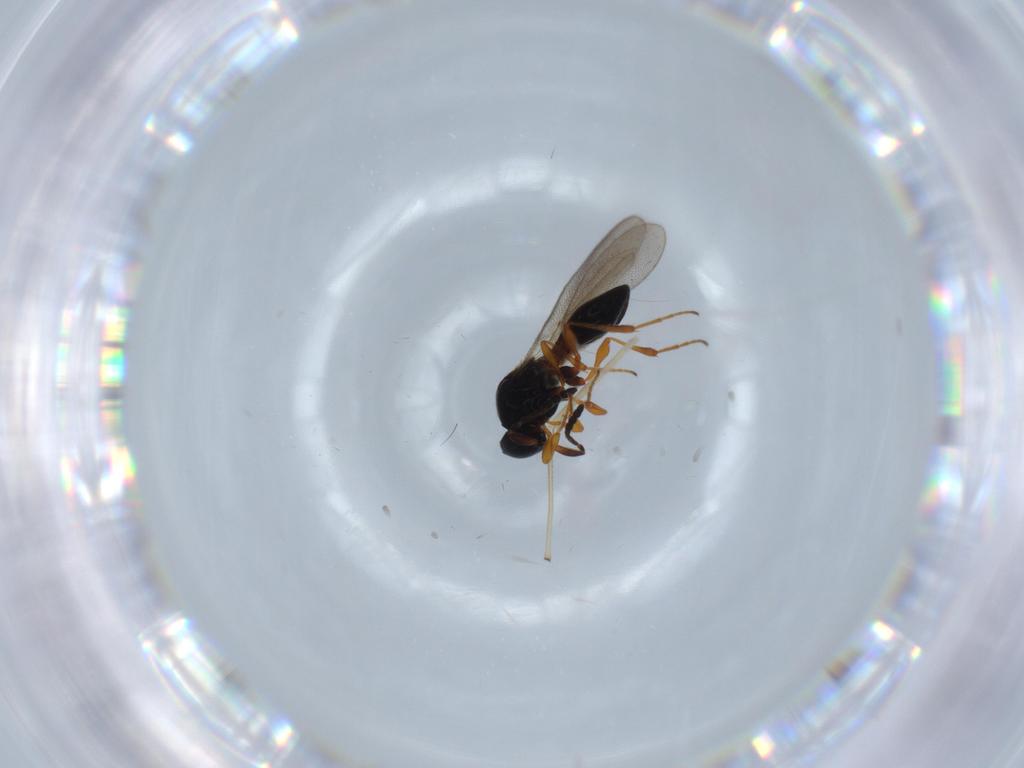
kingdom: Animalia
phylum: Arthropoda
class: Insecta
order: Hymenoptera
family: Platygastridae
